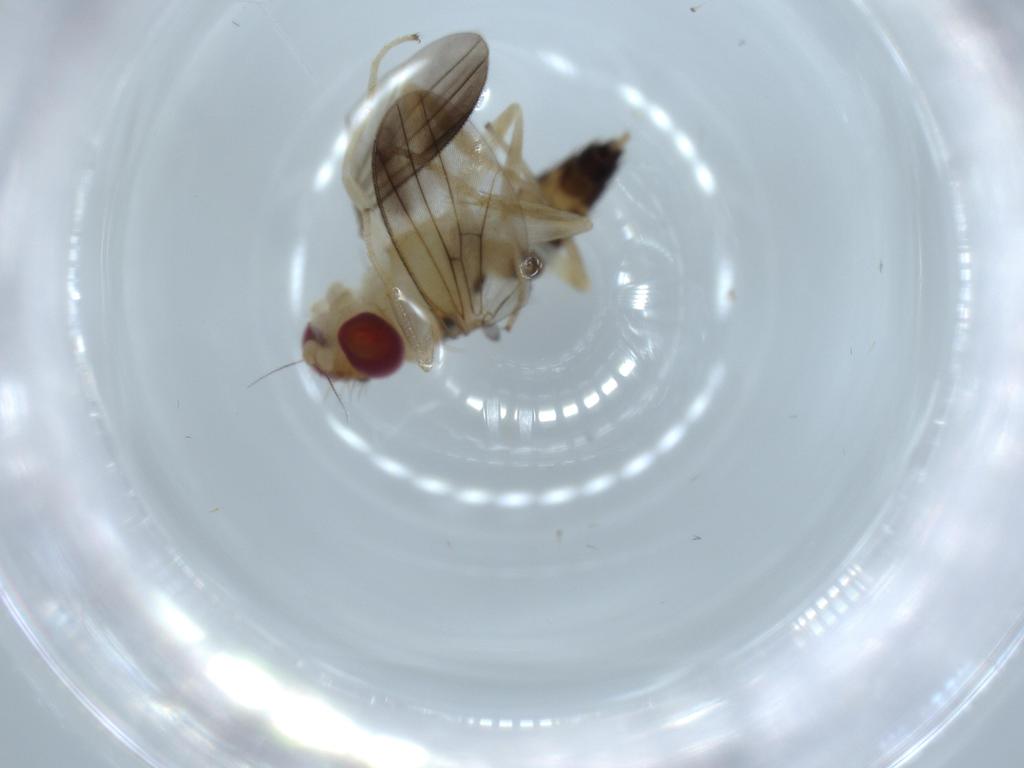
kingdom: Animalia
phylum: Arthropoda
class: Insecta
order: Diptera
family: Clusiidae
